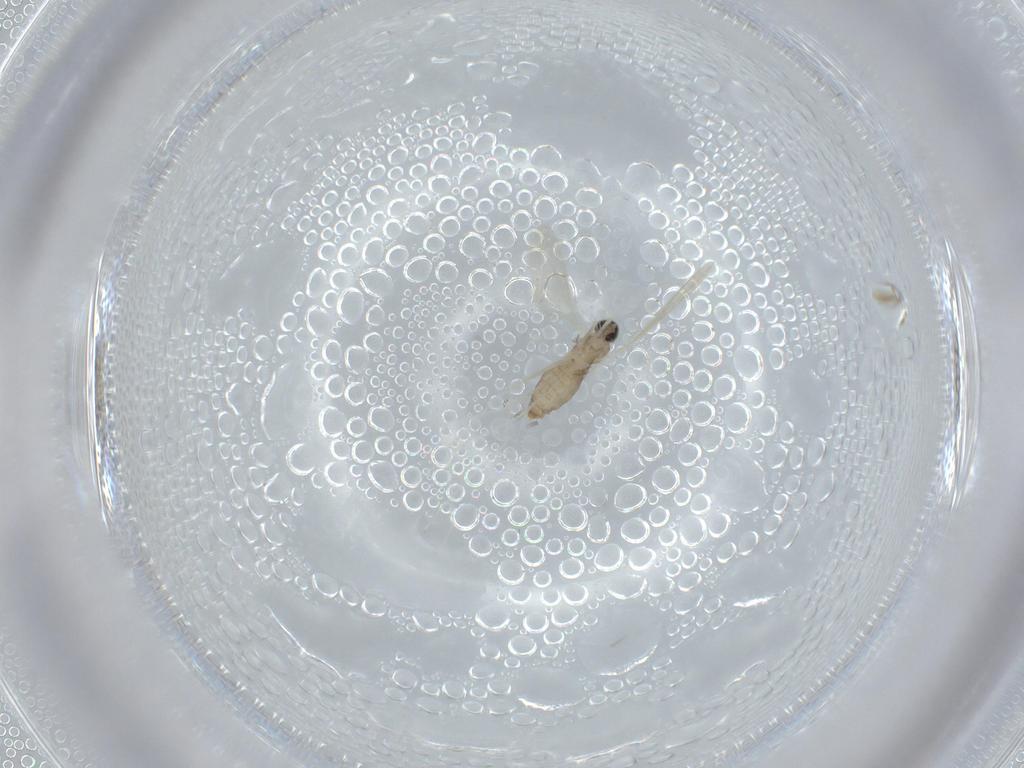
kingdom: Animalia
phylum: Arthropoda
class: Insecta
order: Diptera
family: Cecidomyiidae
